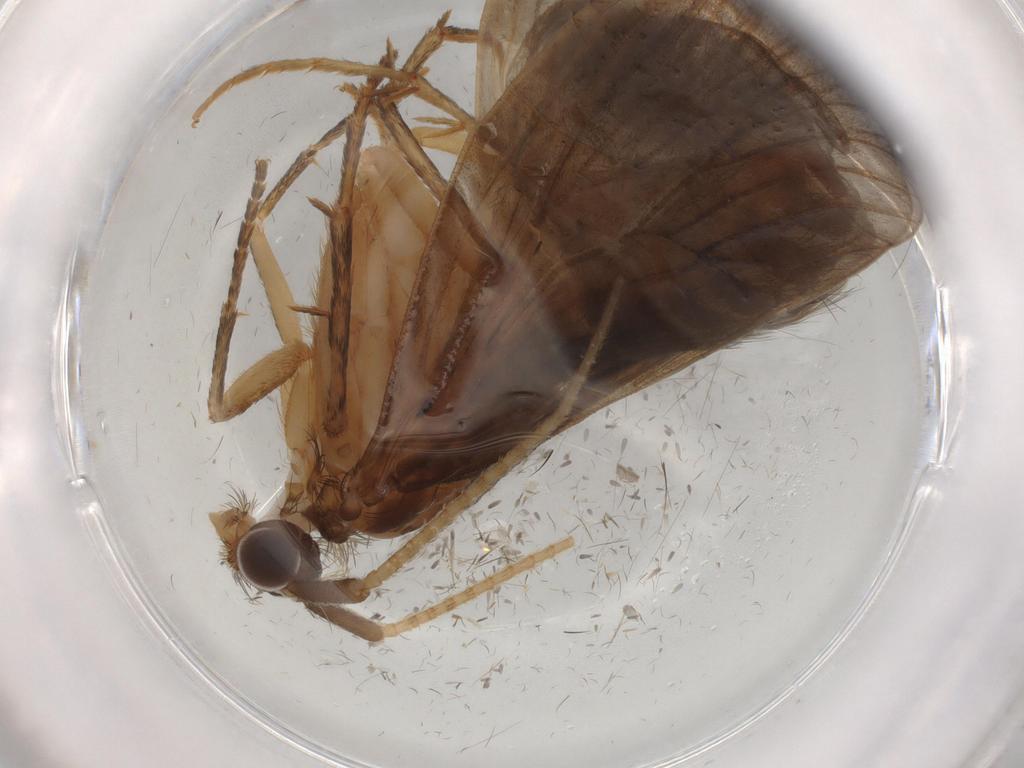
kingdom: Animalia
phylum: Arthropoda
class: Insecta
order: Trichoptera
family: Lepidostomatidae
